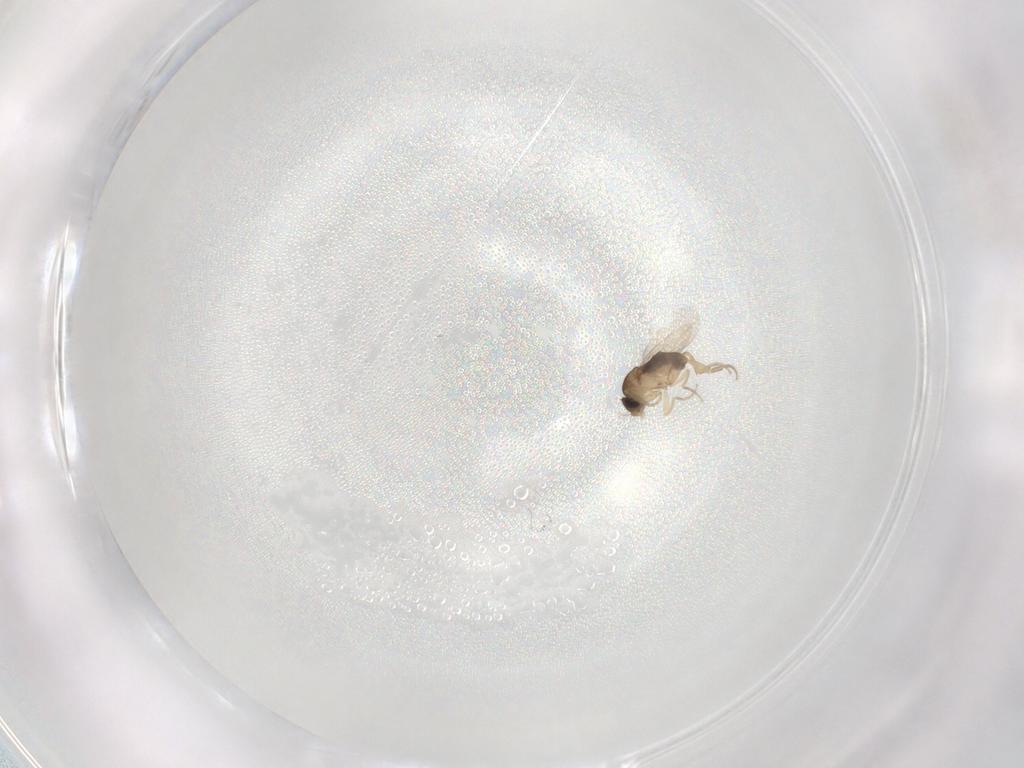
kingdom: Animalia
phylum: Arthropoda
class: Insecta
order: Diptera
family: Phoridae
